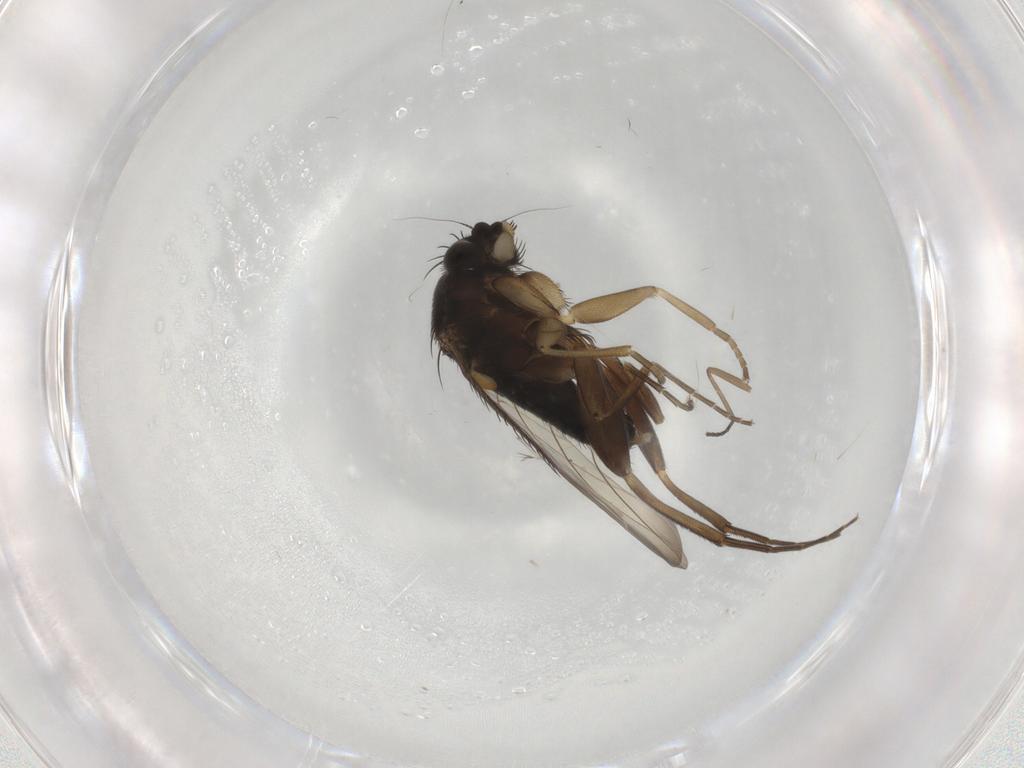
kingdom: Animalia
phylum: Arthropoda
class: Insecta
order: Diptera
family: Phoridae
